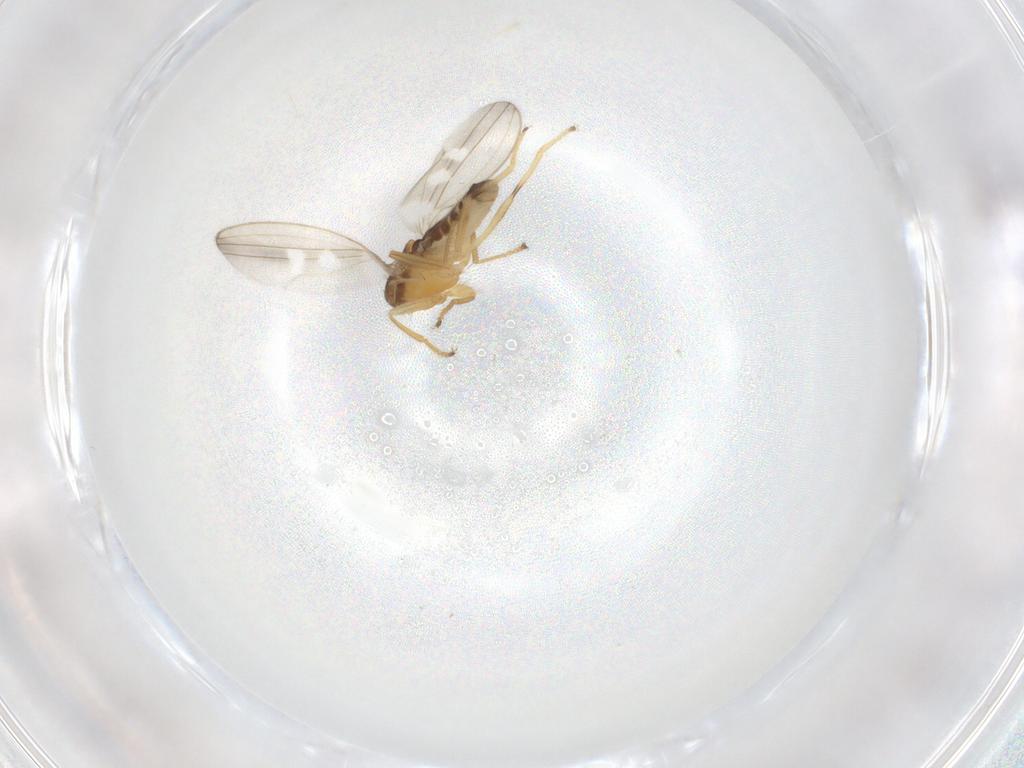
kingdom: Animalia
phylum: Arthropoda
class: Insecta
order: Diptera
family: Periscelididae
